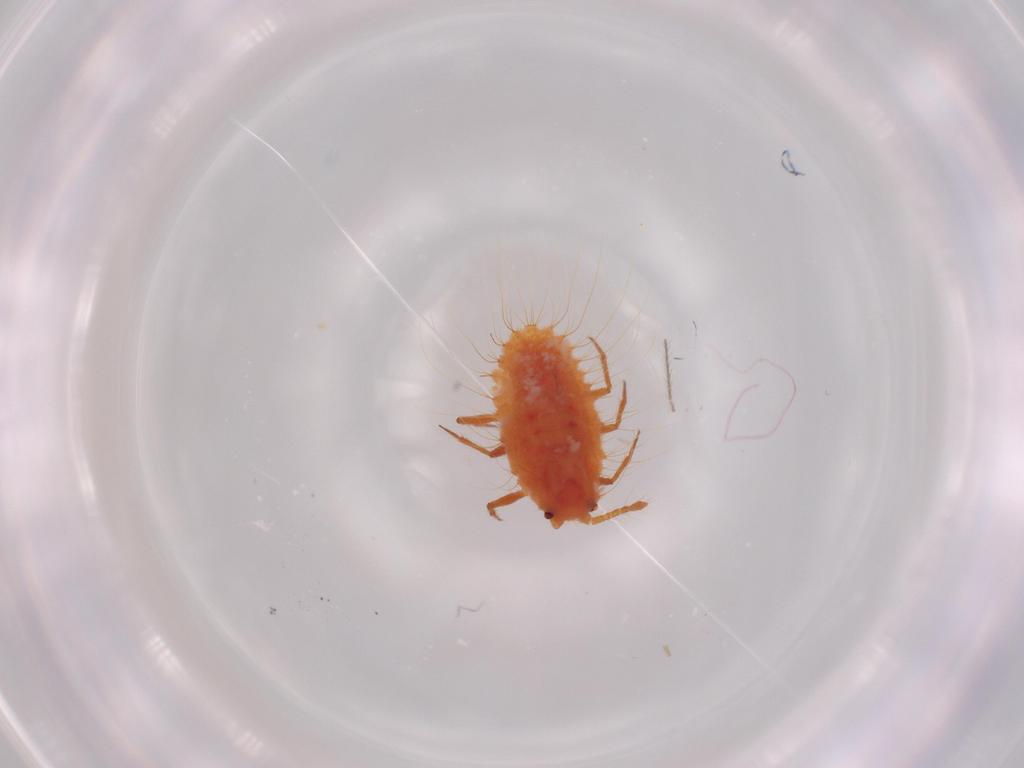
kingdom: Animalia
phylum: Arthropoda
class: Insecta
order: Hemiptera
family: Coccoidea_incertae_sedis
